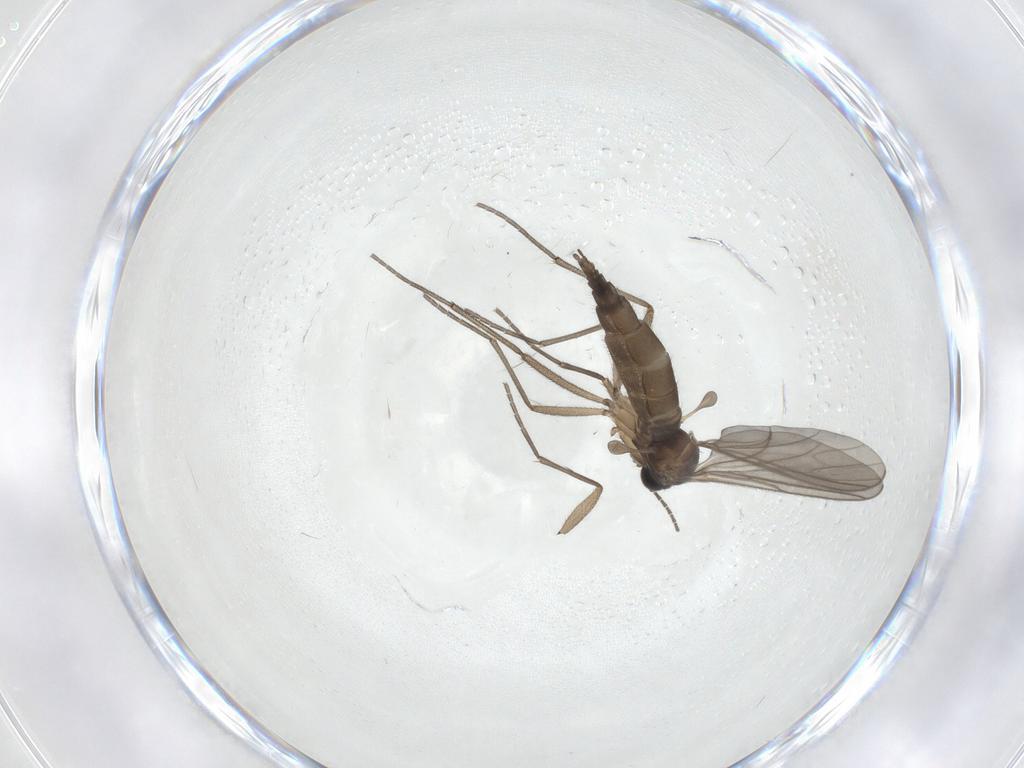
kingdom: Animalia
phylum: Arthropoda
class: Insecta
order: Diptera
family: Sciaridae
